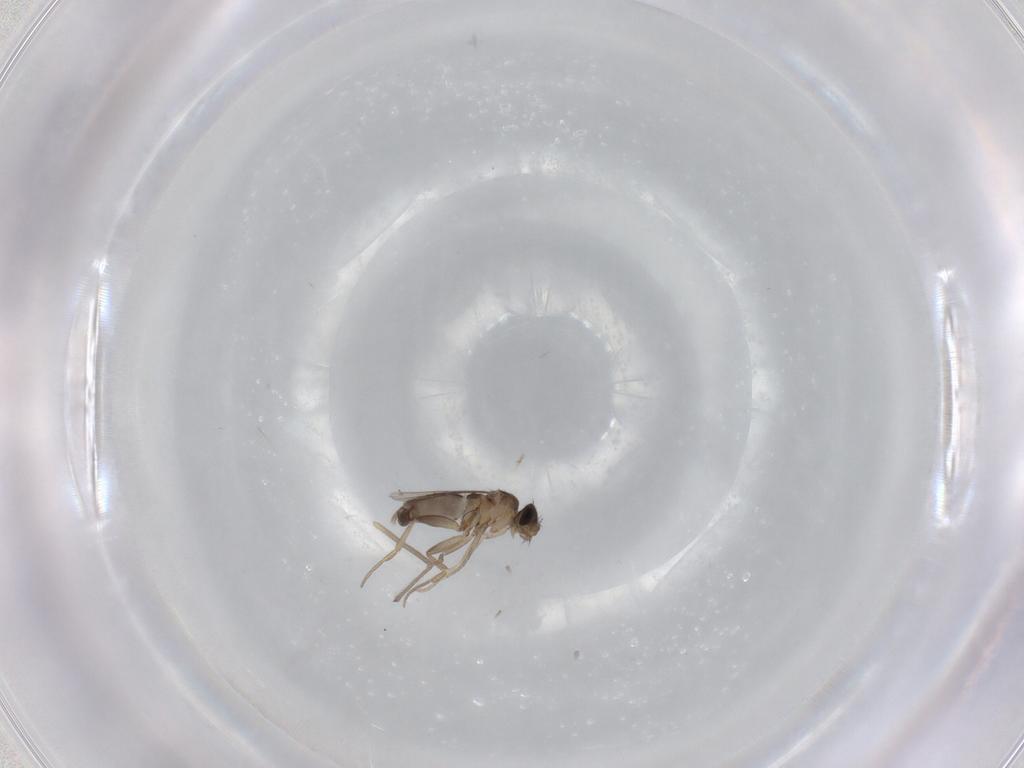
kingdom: Animalia
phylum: Arthropoda
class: Insecta
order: Diptera
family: Phoridae
